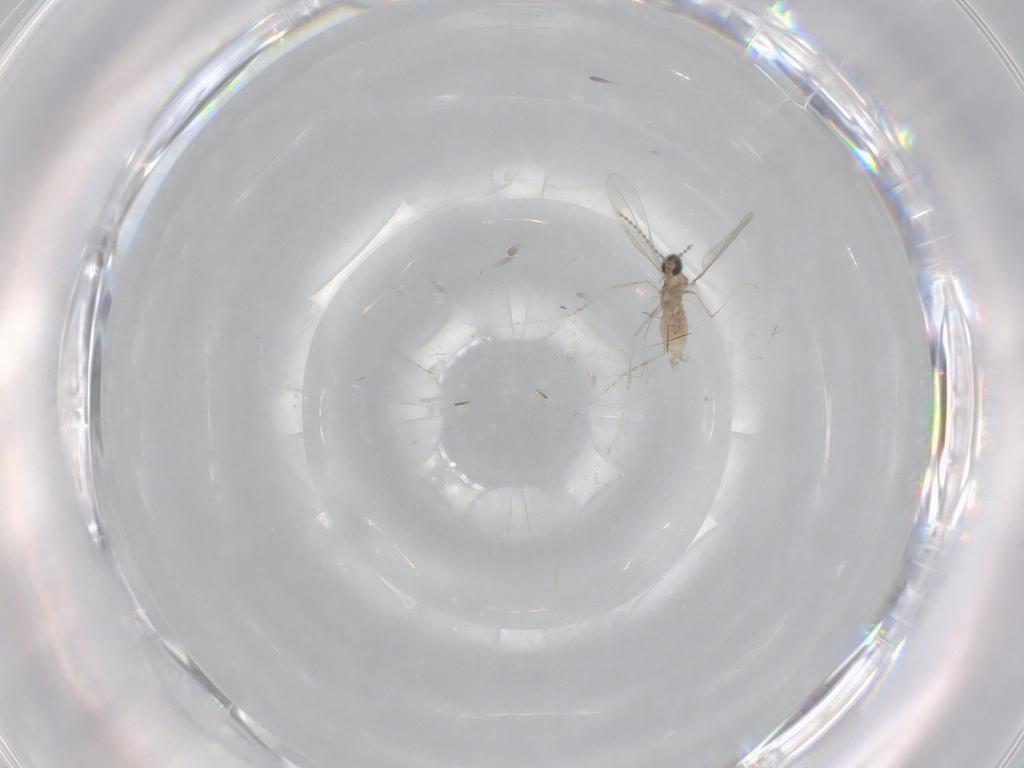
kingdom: Animalia
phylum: Arthropoda
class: Insecta
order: Diptera
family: Cecidomyiidae
